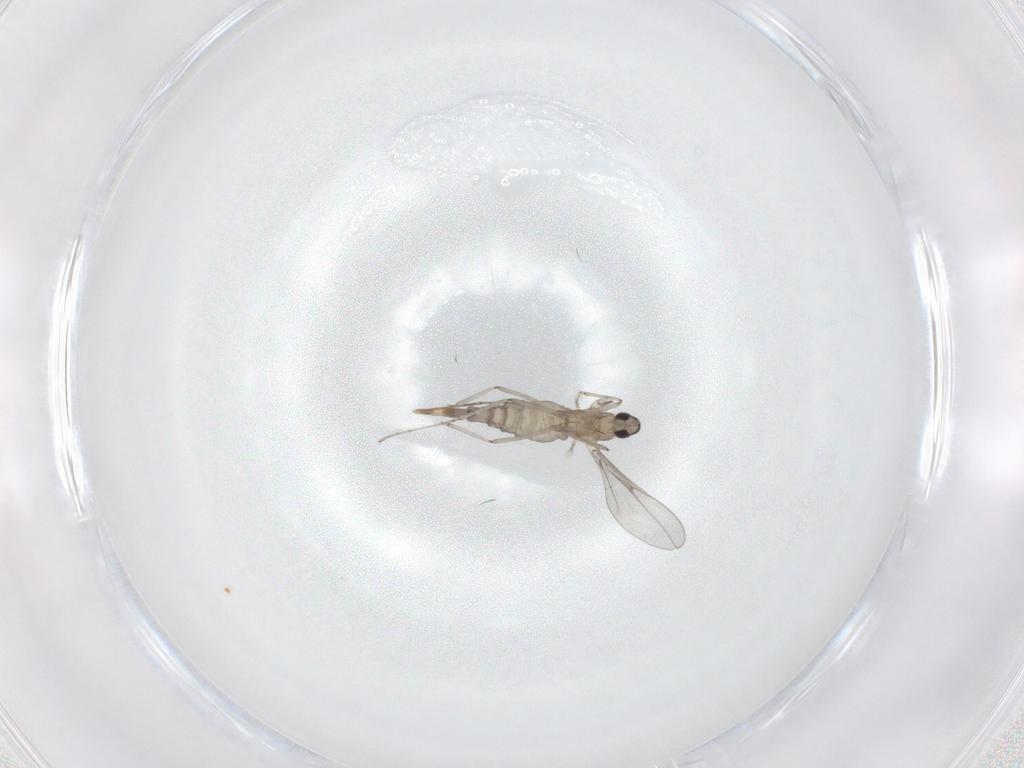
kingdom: Animalia
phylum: Arthropoda
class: Insecta
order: Diptera
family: Cecidomyiidae
